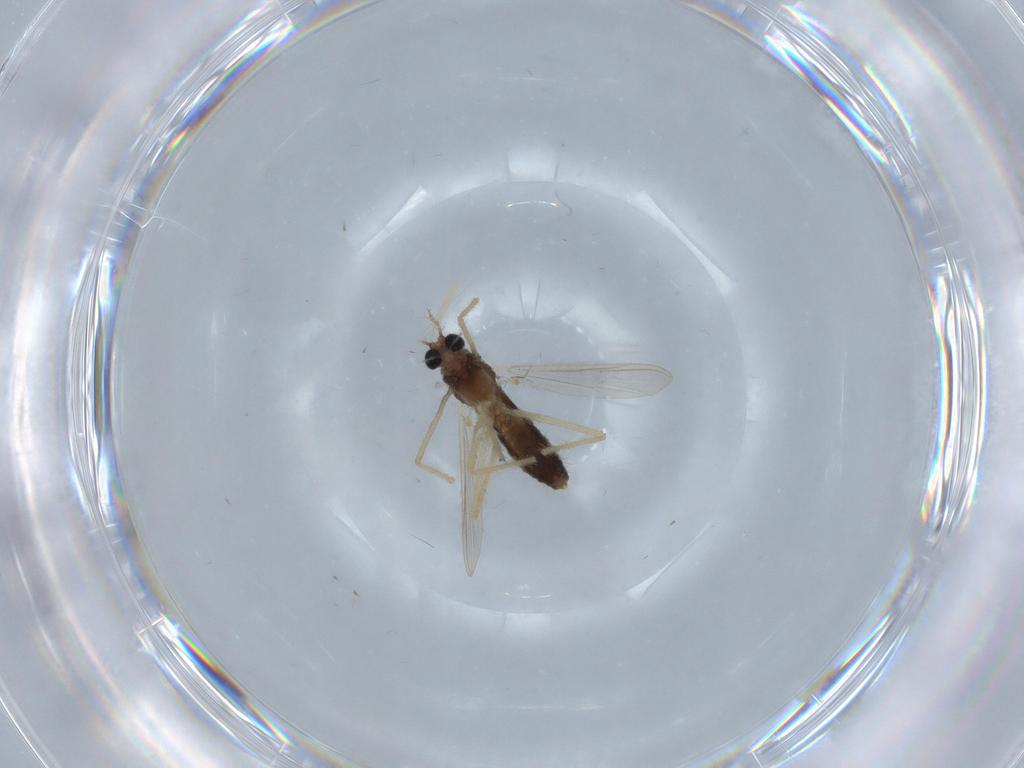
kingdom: Animalia
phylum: Arthropoda
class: Insecta
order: Diptera
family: Chironomidae
